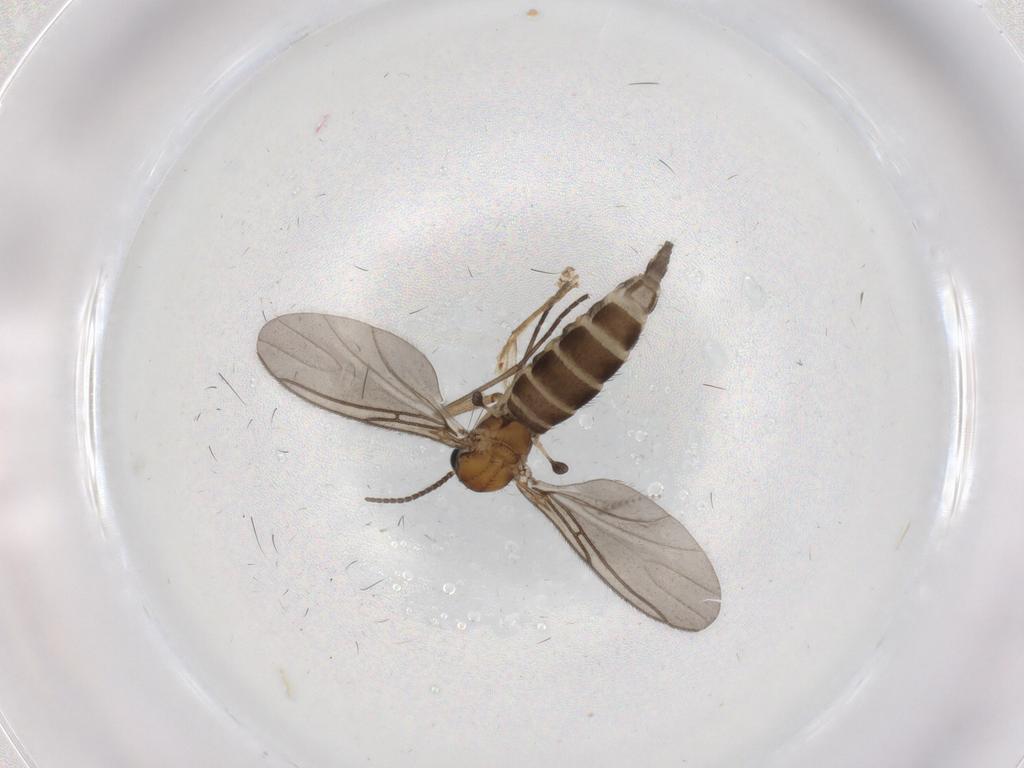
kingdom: Animalia
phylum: Arthropoda
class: Insecta
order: Diptera
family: Sciaridae
